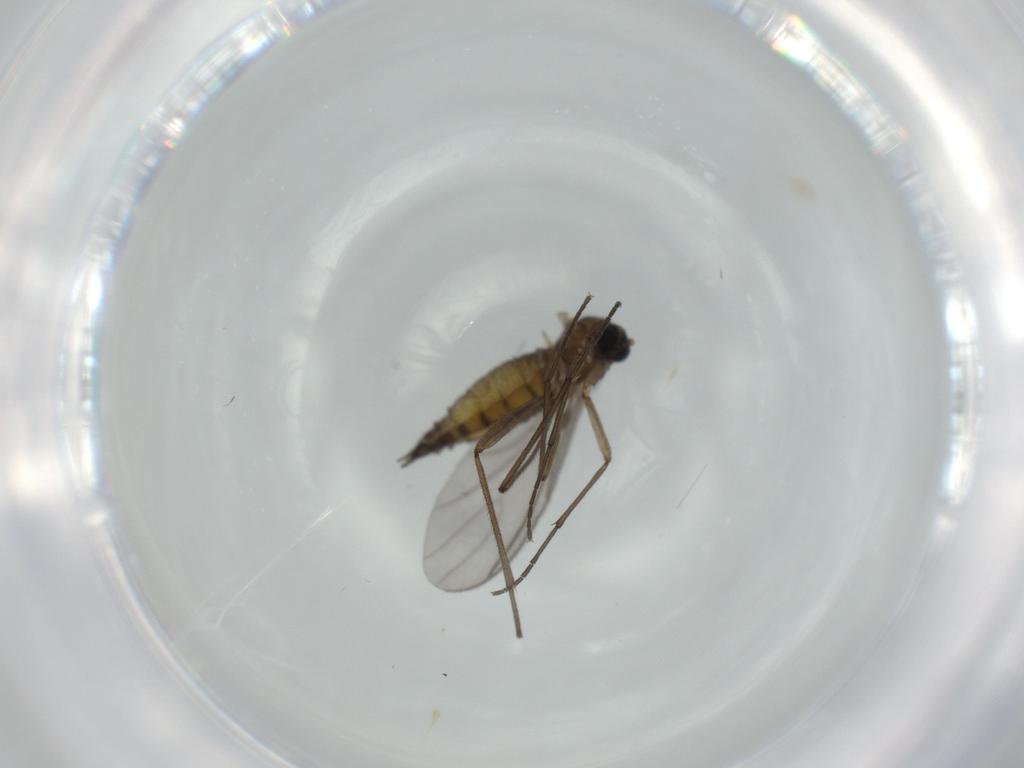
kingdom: Animalia
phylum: Arthropoda
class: Insecta
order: Diptera
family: Sciaridae
